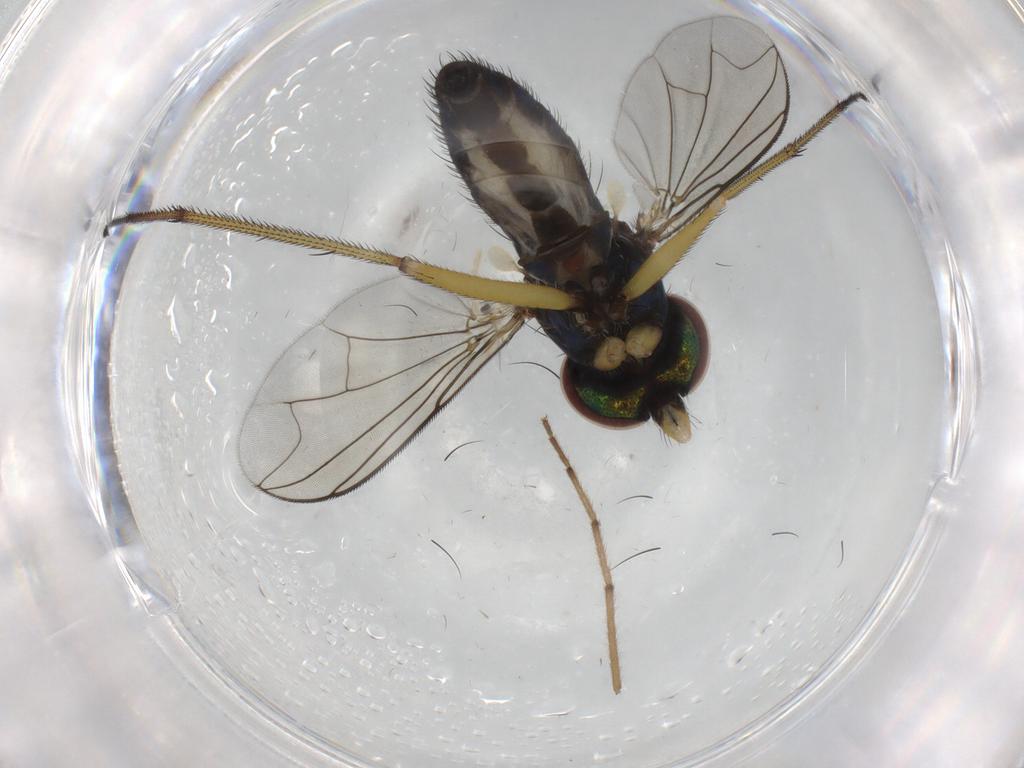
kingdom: Animalia
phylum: Arthropoda
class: Insecta
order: Diptera
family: Dolichopodidae
